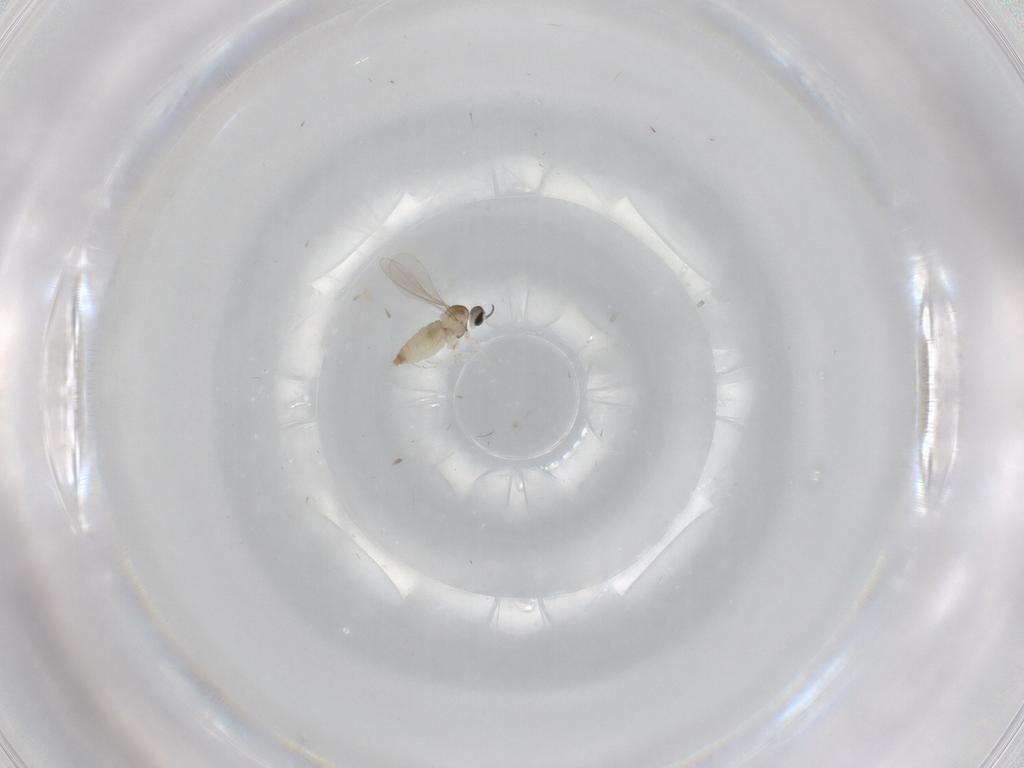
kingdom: Animalia
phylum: Arthropoda
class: Insecta
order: Diptera
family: Cecidomyiidae
